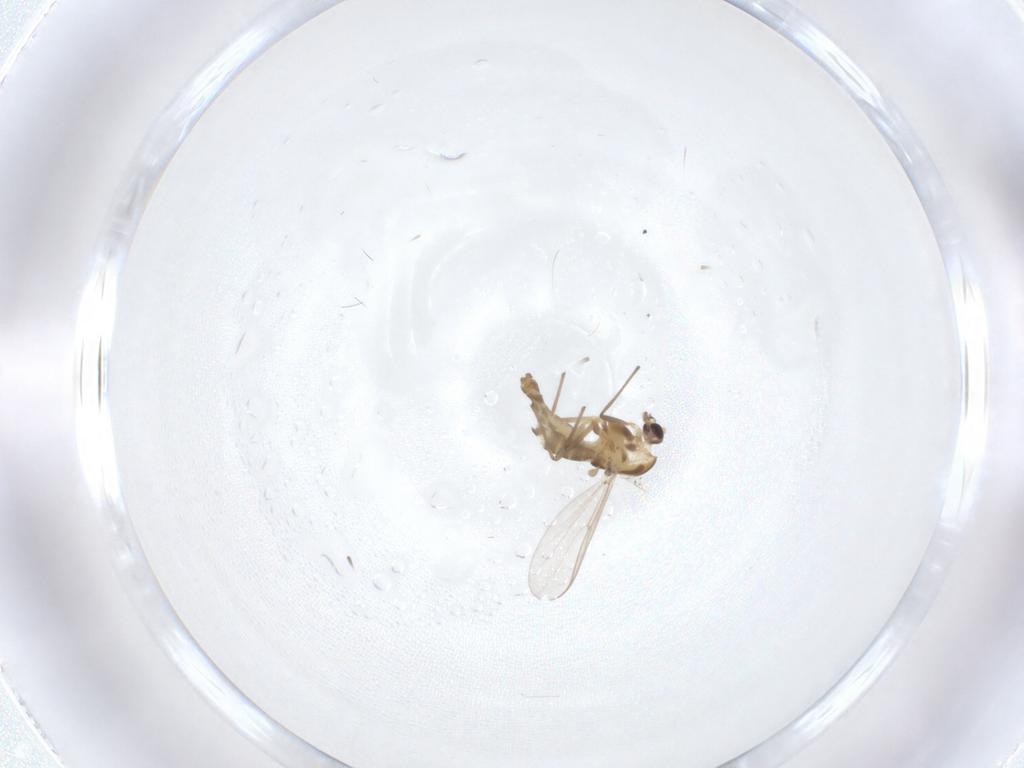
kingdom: Animalia
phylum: Arthropoda
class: Insecta
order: Diptera
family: Chironomidae
